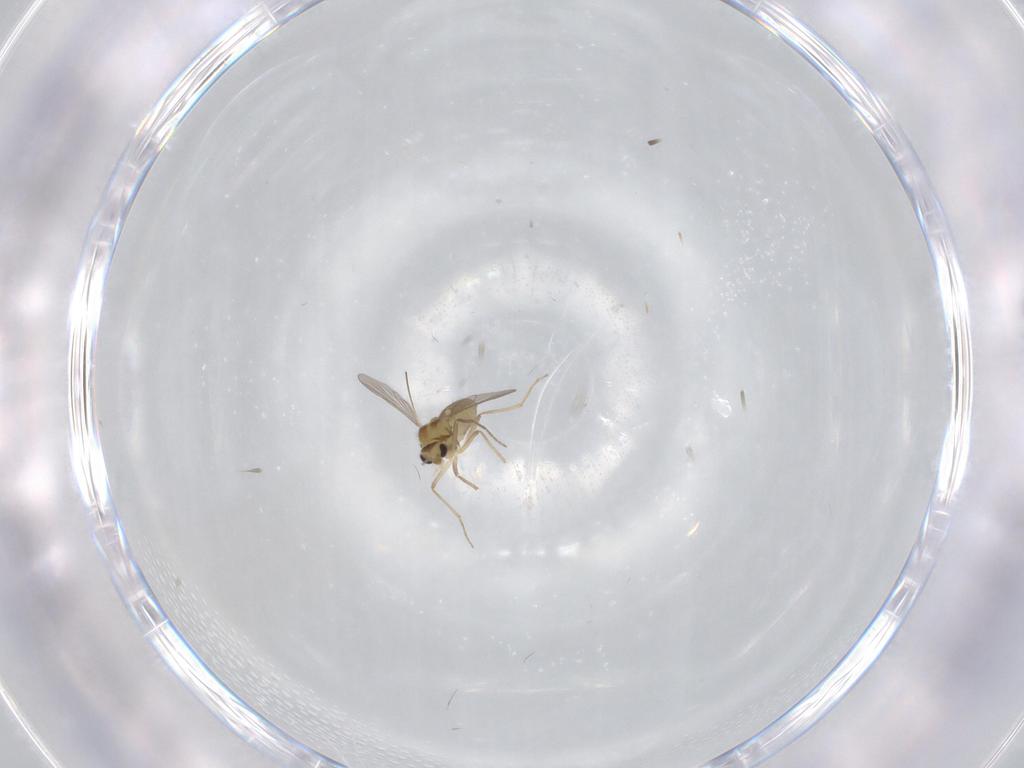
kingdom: Animalia
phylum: Arthropoda
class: Insecta
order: Diptera
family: Chironomidae
